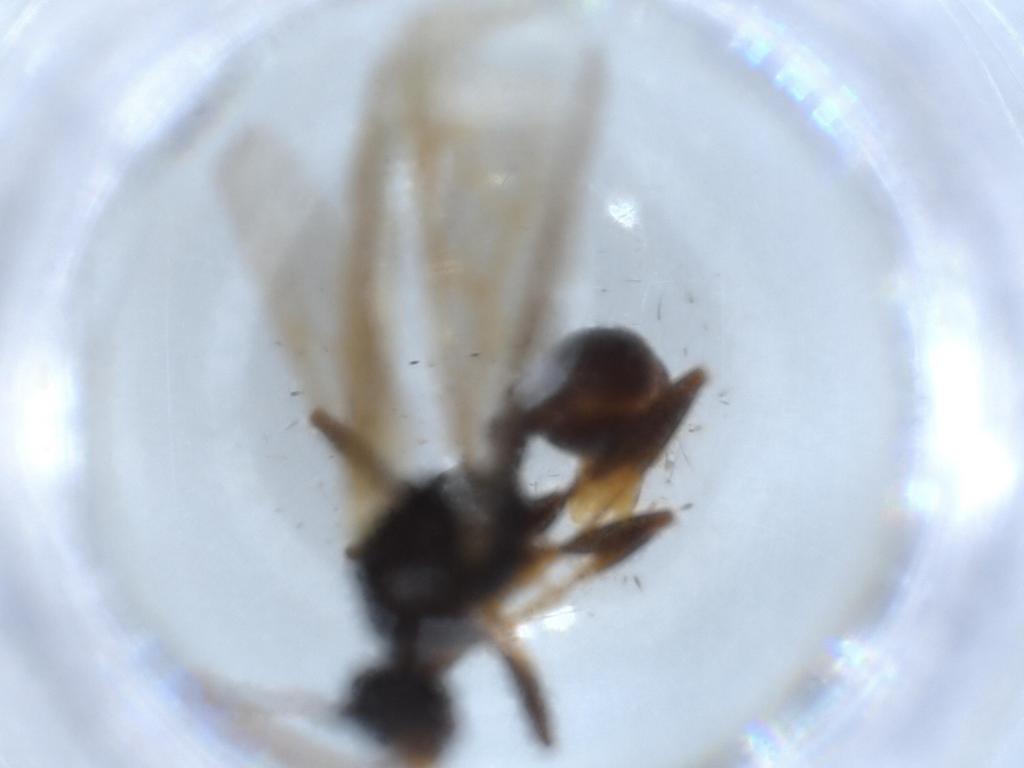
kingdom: Animalia
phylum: Arthropoda
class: Insecta
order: Hymenoptera
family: Formicidae
